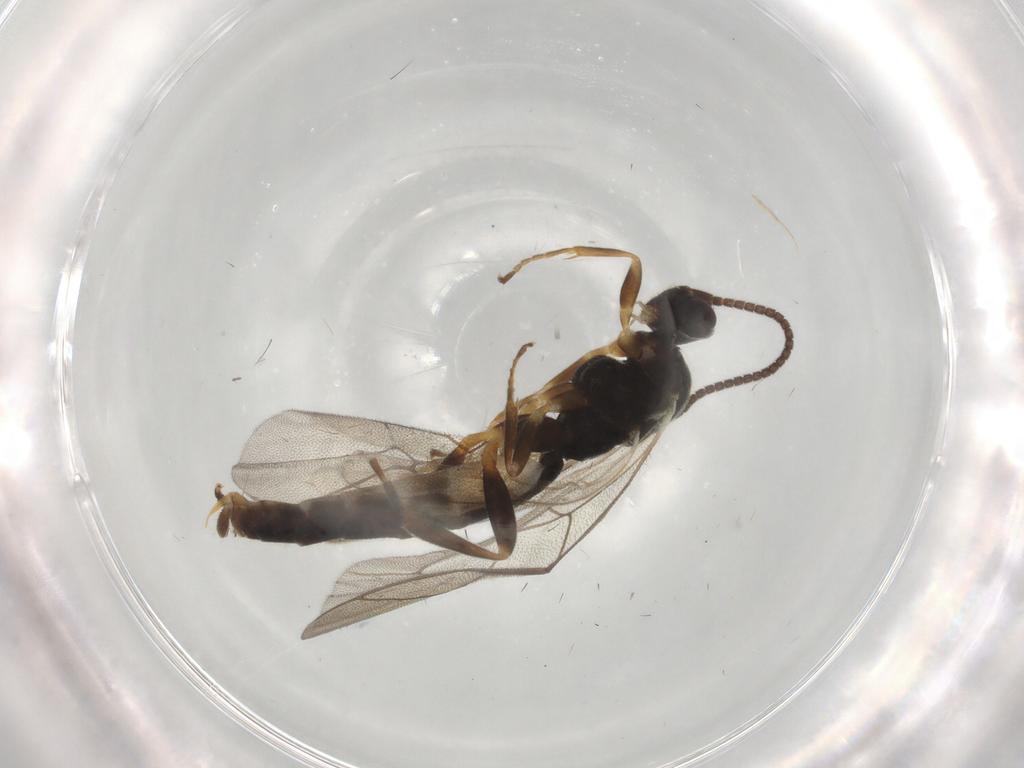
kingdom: Animalia
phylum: Arthropoda
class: Insecta
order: Hymenoptera
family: Ichneumonidae
